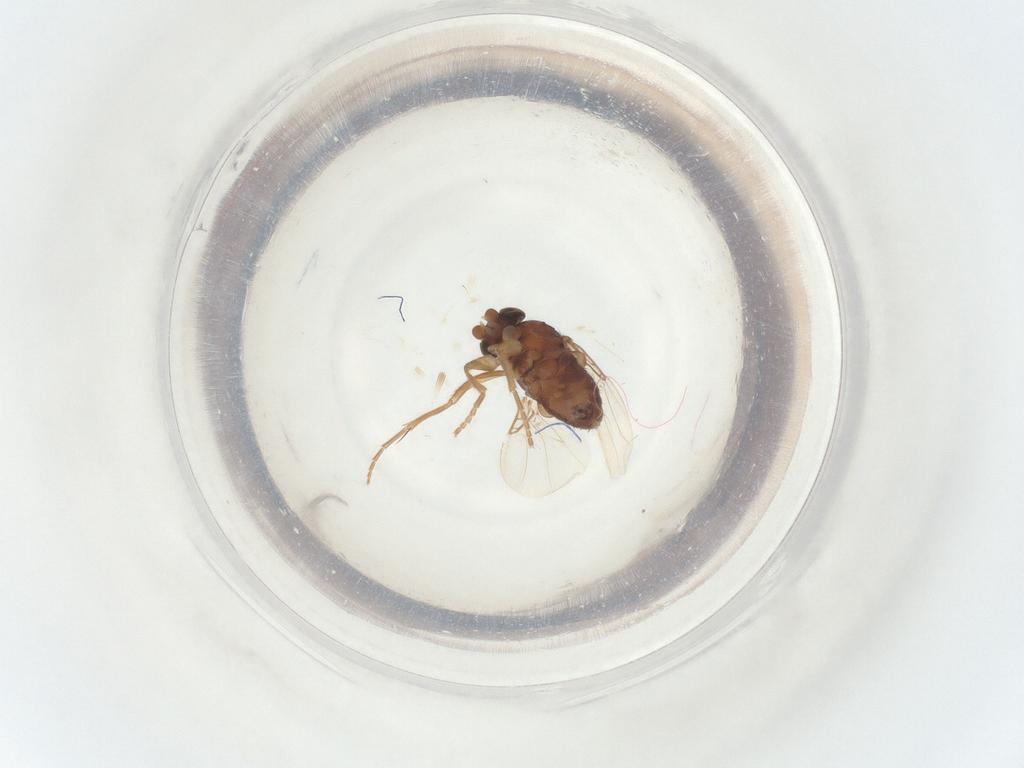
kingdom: Animalia
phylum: Arthropoda
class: Insecta
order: Diptera
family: Phoridae
